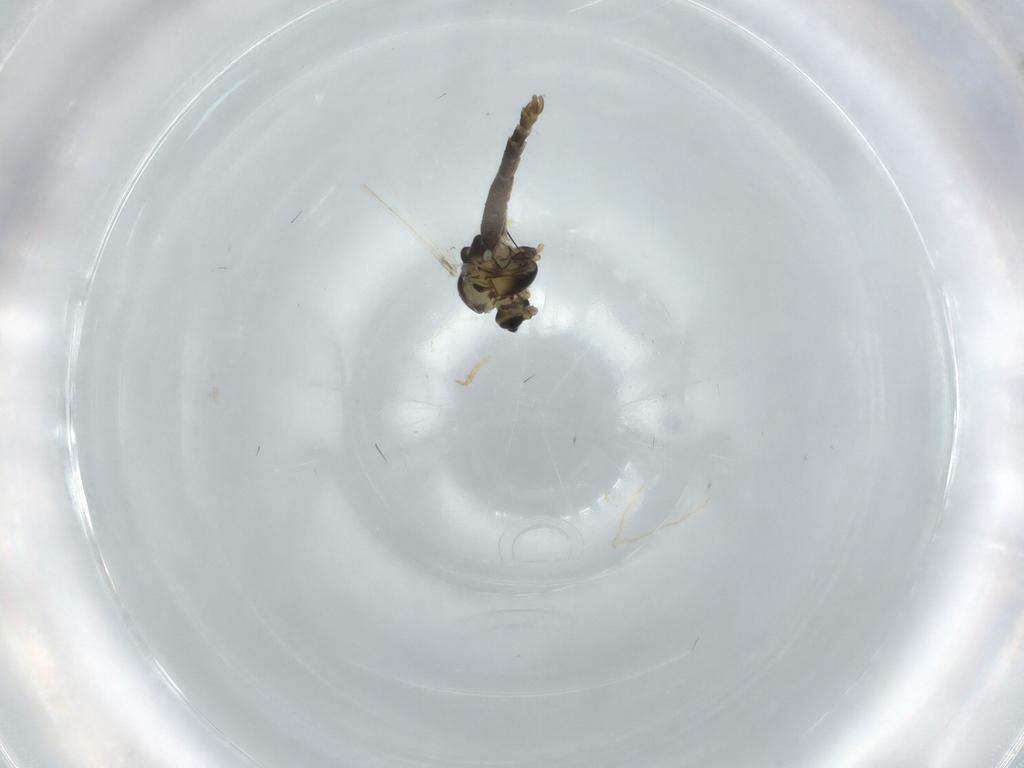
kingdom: Animalia
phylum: Arthropoda
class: Insecta
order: Diptera
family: Chironomidae
